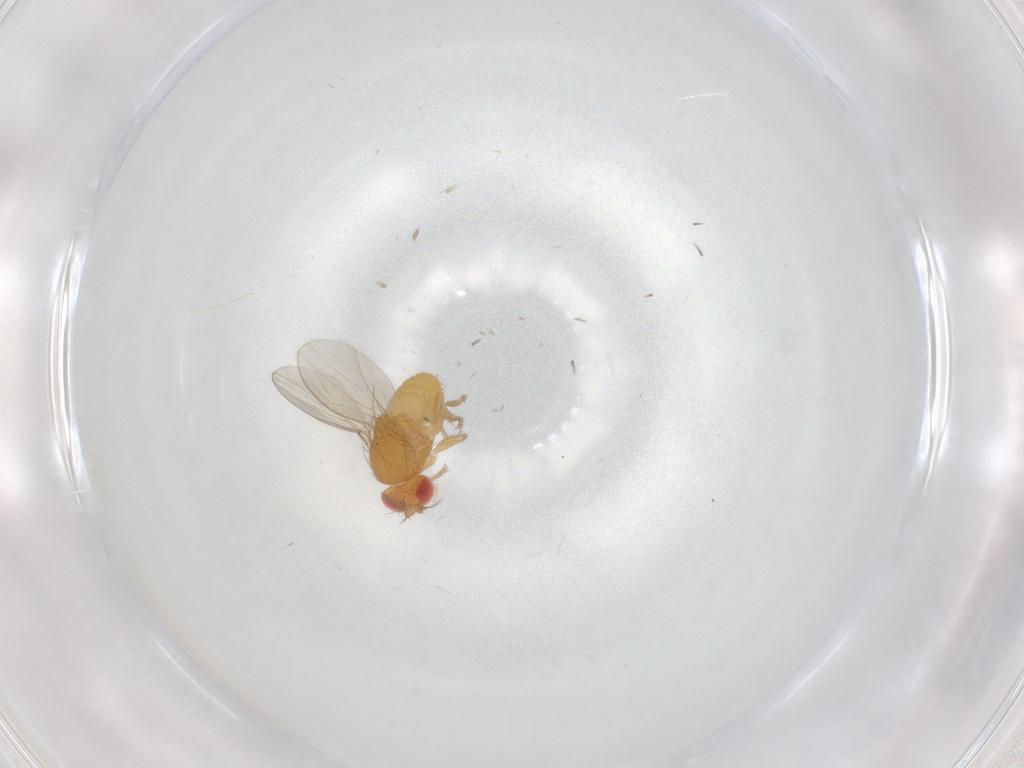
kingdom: Animalia
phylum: Arthropoda
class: Insecta
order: Diptera
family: Drosophilidae
